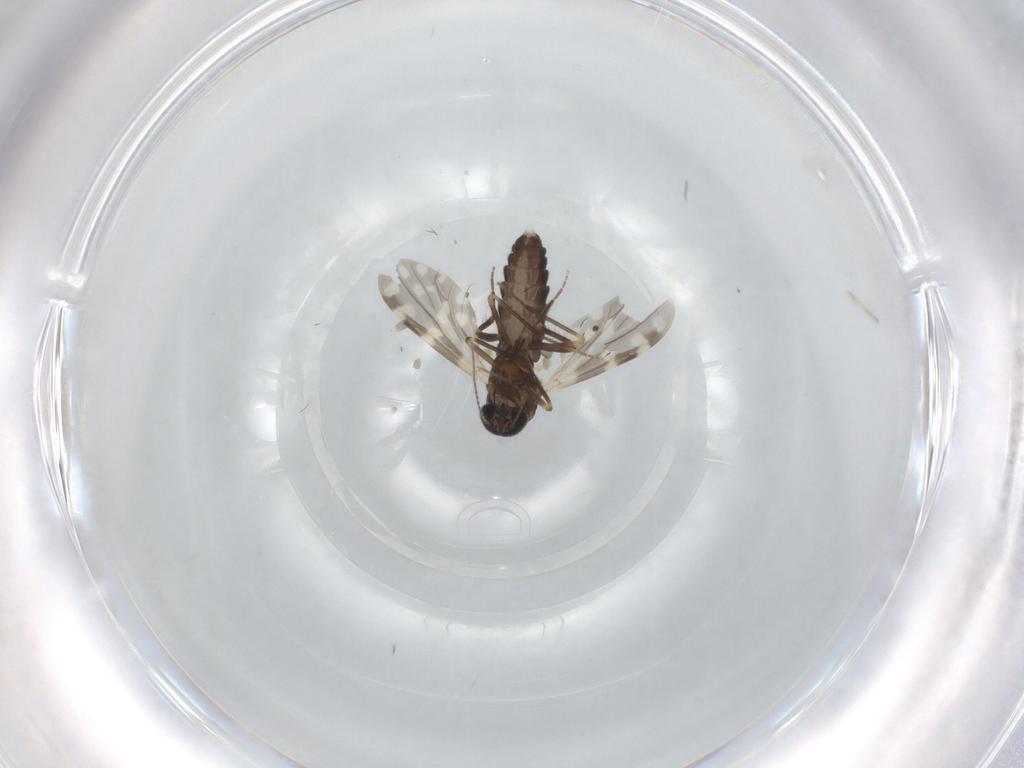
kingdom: Animalia
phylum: Arthropoda
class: Insecta
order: Diptera
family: Ceratopogonidae
